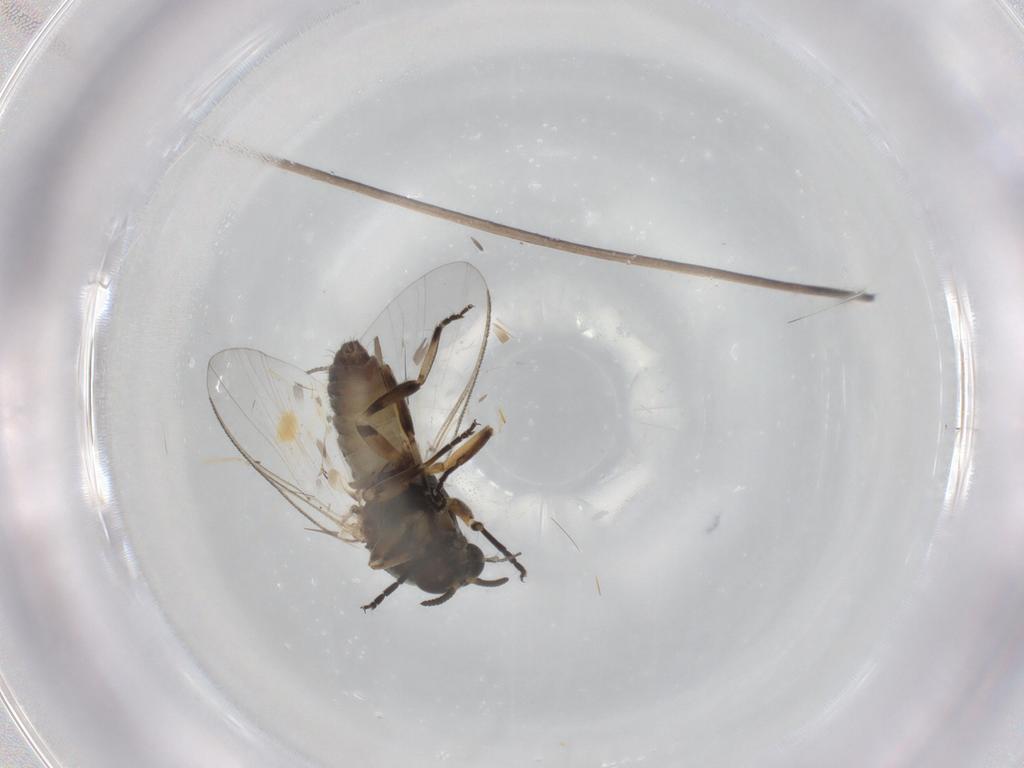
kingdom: Animalia
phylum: Arthropoda
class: Insecta
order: Diptera
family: Simuliidae
